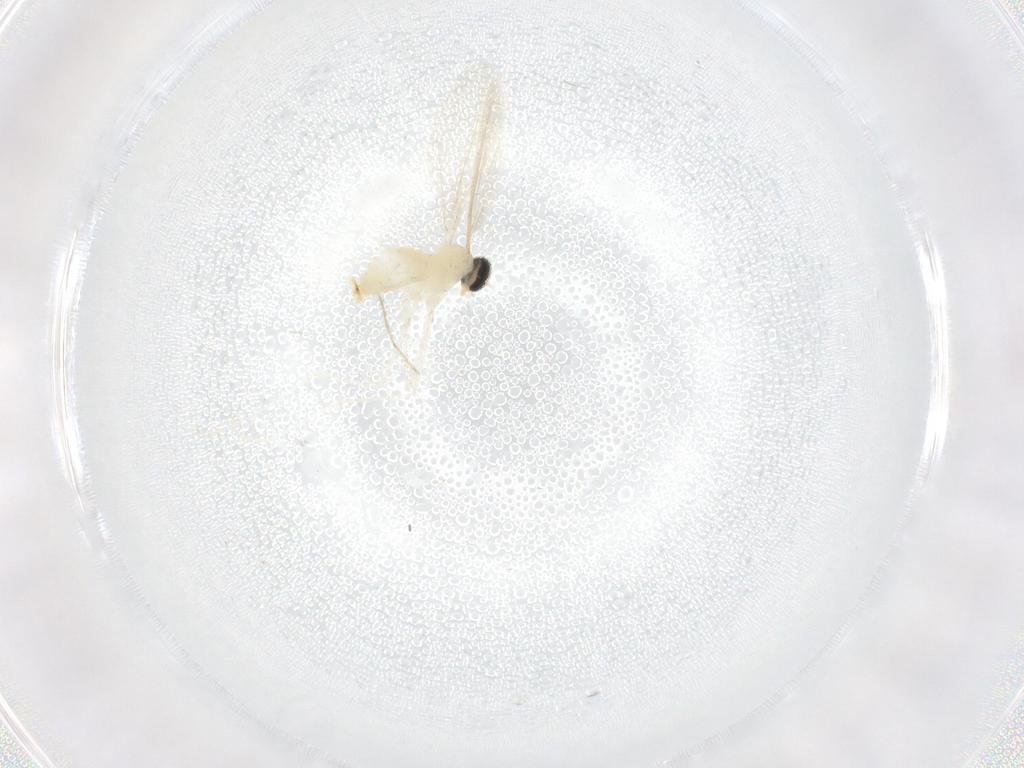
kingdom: Animalia
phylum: Arthropoda
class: Insecta
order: Diptera
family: Cecidomyiidae
